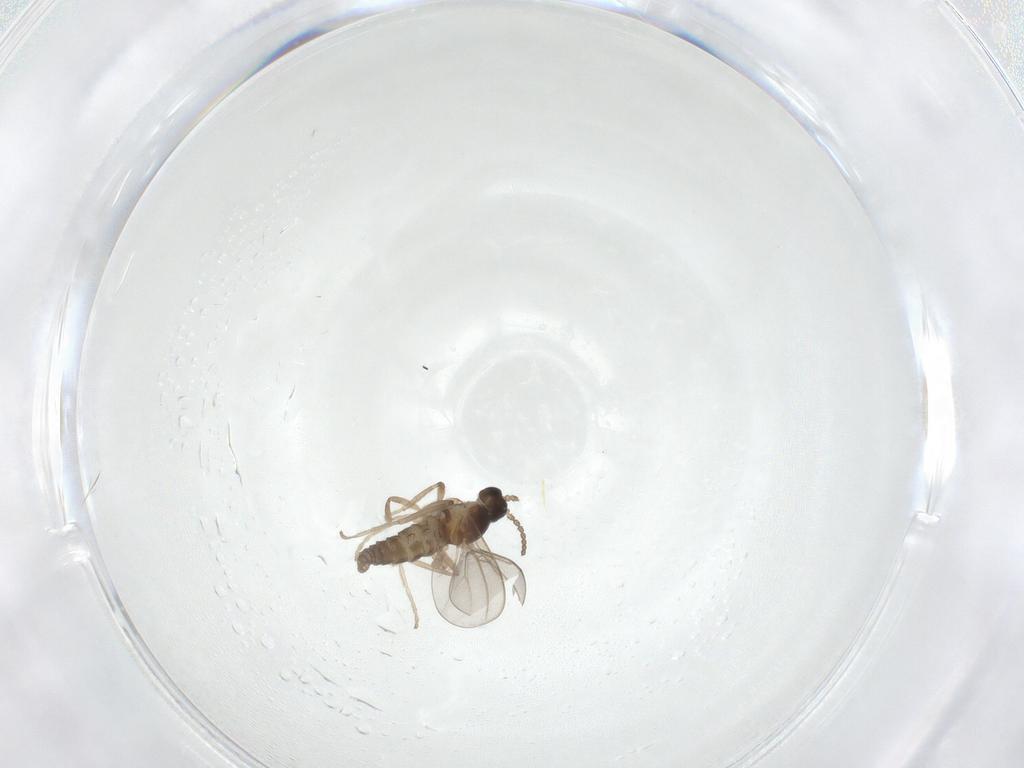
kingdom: Animalia
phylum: Arthropoda
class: Insecta
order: Diptera
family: Cecidomyiidae
